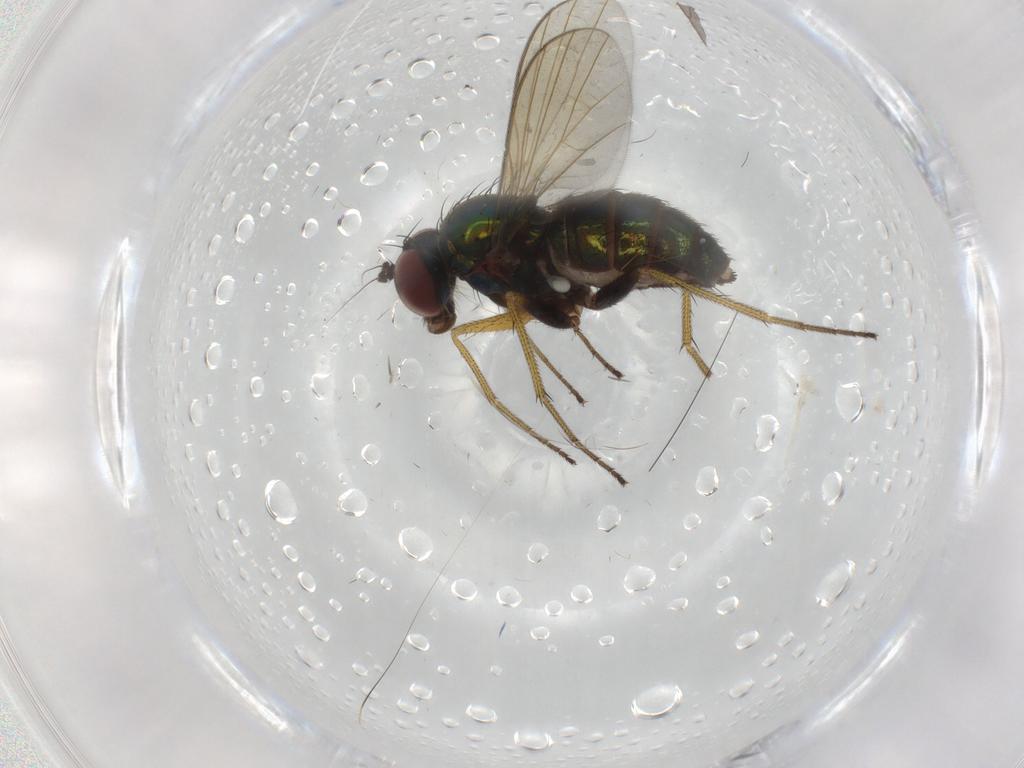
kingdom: Animalia
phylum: Arthropoda
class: Insecta
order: Diptera
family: Dolichopodidae
